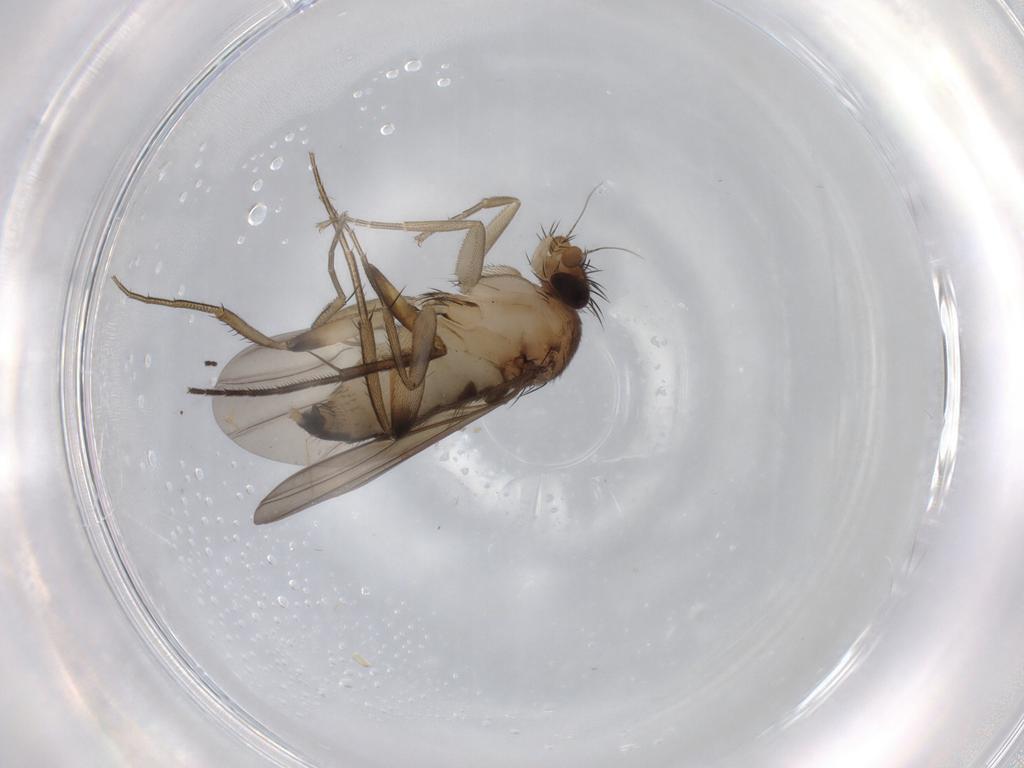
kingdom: Animalia
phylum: Arthropoda
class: Insecta
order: Diptera
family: Phoridae
